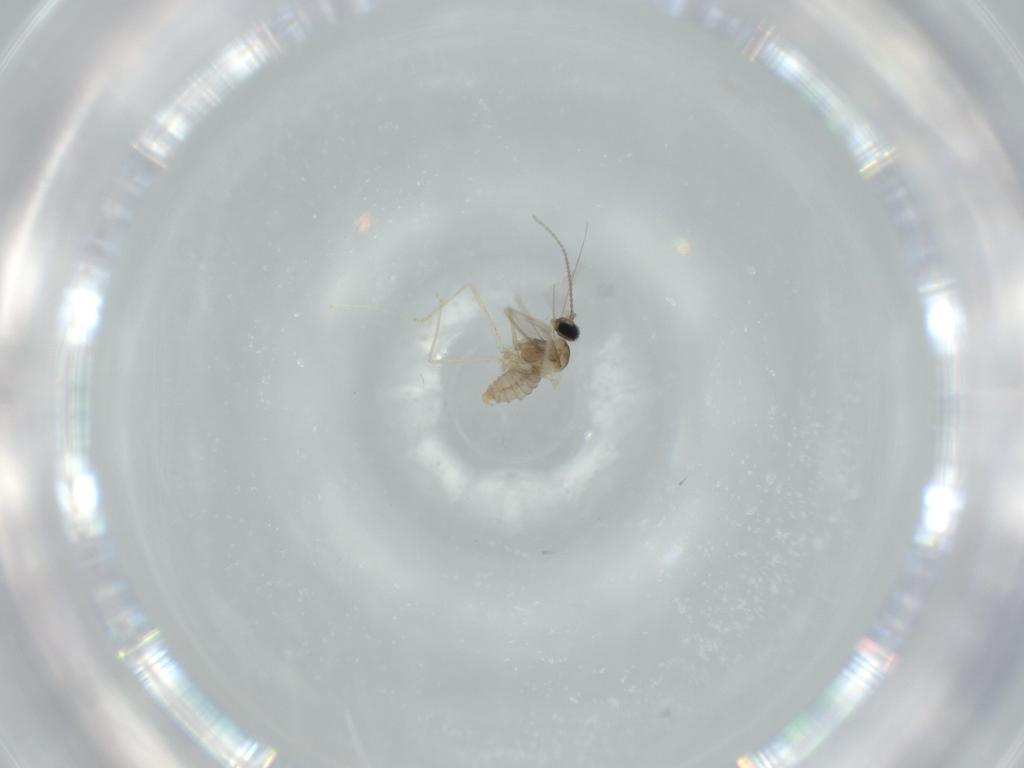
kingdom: Animalia
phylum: Arthropoda
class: Insecta
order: Diptera
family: Cecidomyiidae
